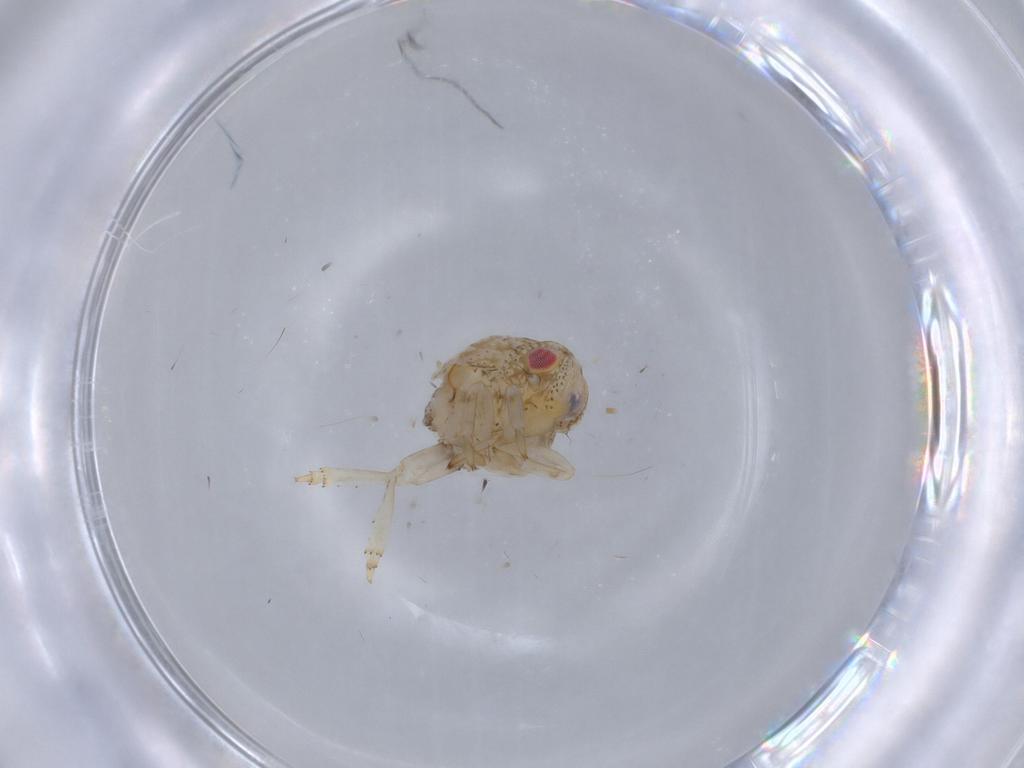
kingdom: Animalia
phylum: Arthropoda
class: Insecta
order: Hemiptera
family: Acanaloniidae
